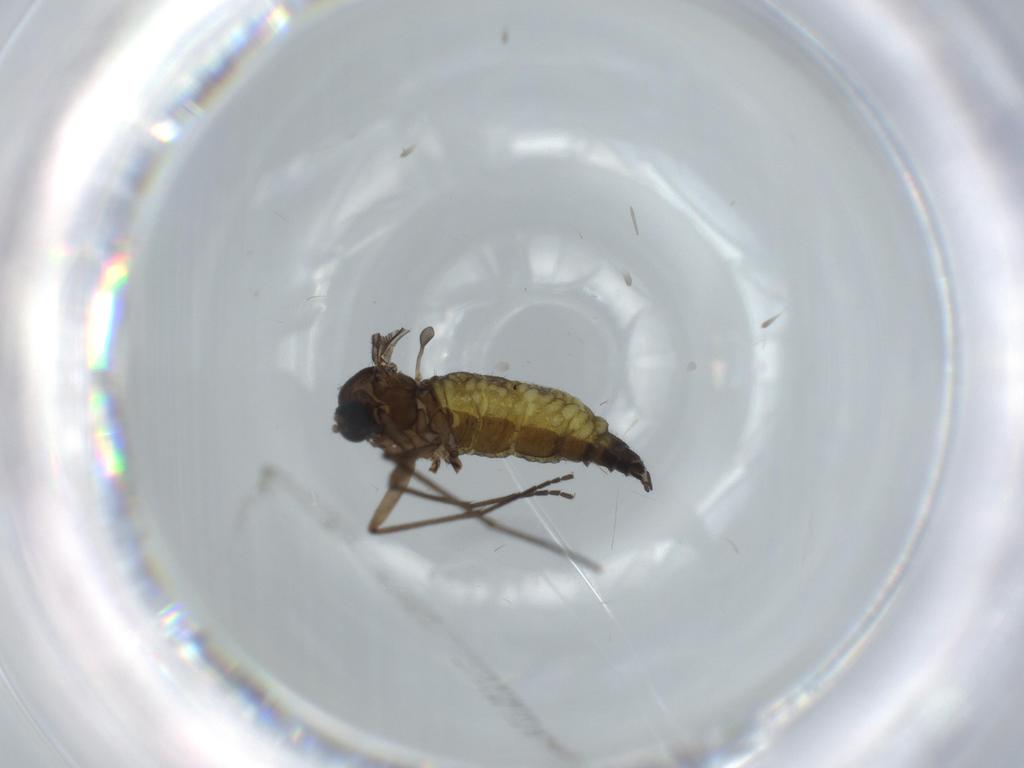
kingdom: Animalia
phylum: Arthropoda
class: Insecta
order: Diptera
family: Sciaridae
